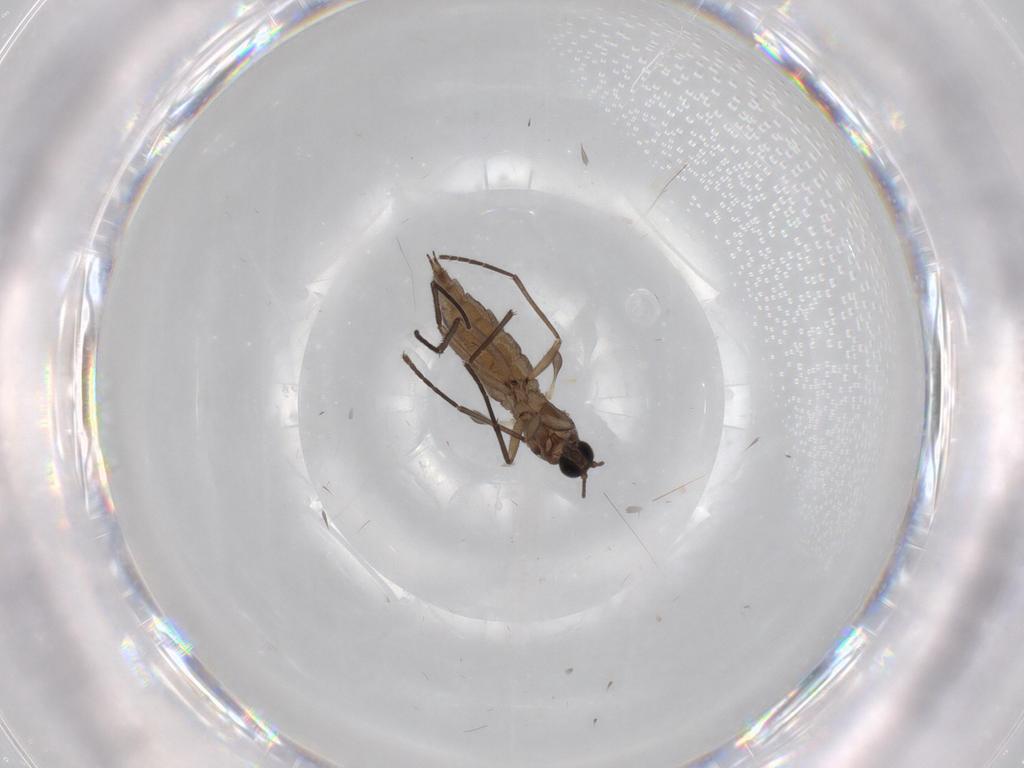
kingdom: Animalia
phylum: Arthropoda
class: Insecta
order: Diptera
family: Sciaridae
